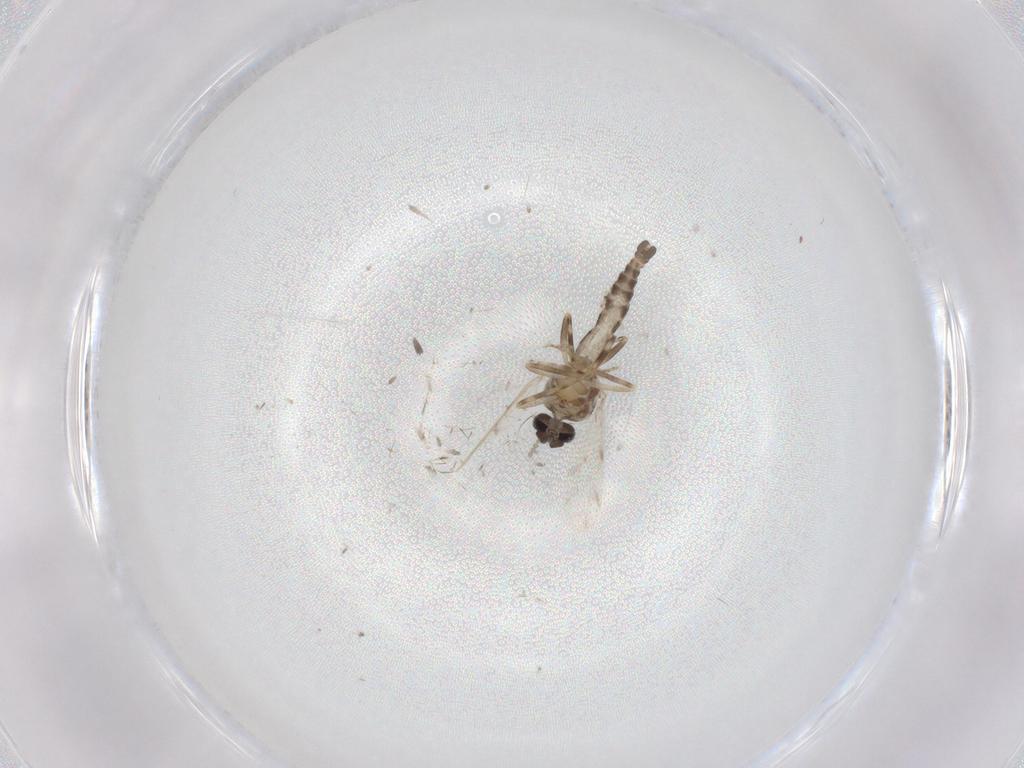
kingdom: Animalia
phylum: Arthropoda
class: Insecta
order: Diptera
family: Ceratopogonidae
